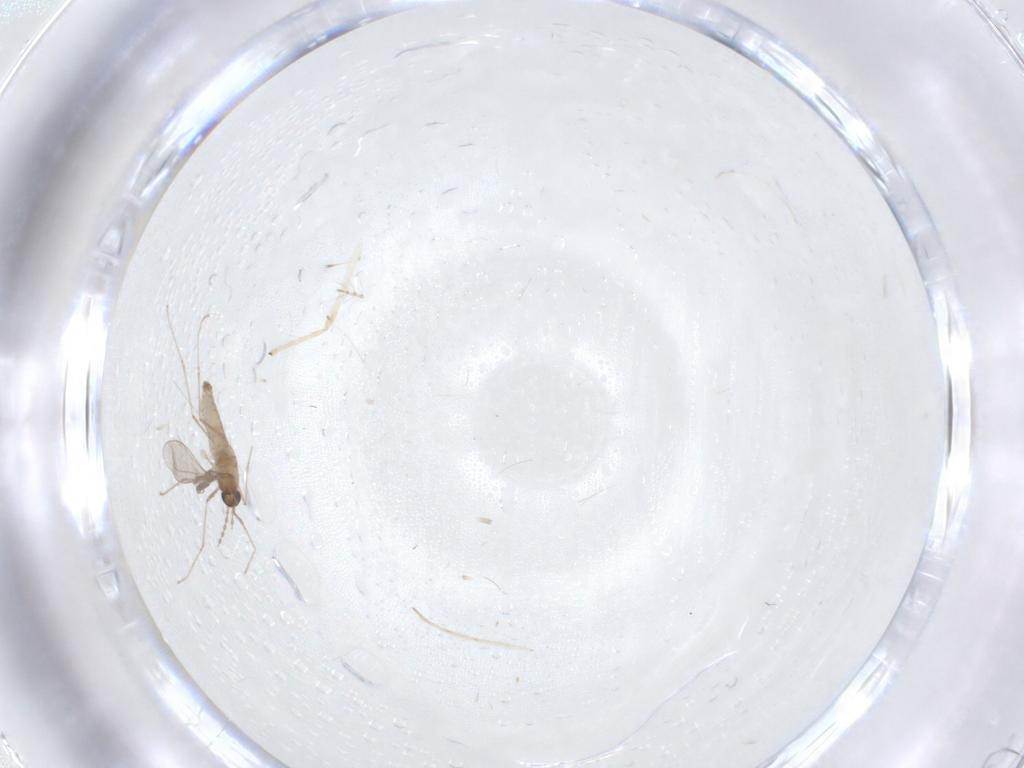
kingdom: Animalia
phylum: Arthropoda
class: Insecta
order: Diptera
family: Cecidomyiidae
